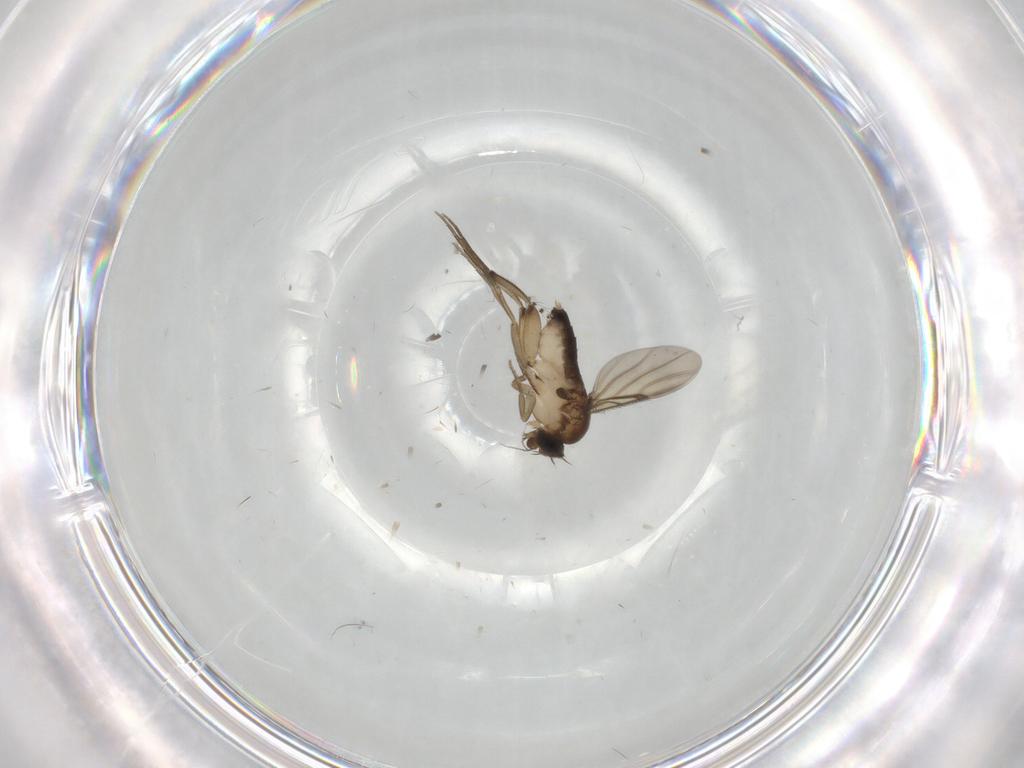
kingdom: Animalia
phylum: Arthropoda
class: Insecta
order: Diptera
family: Phoridae
